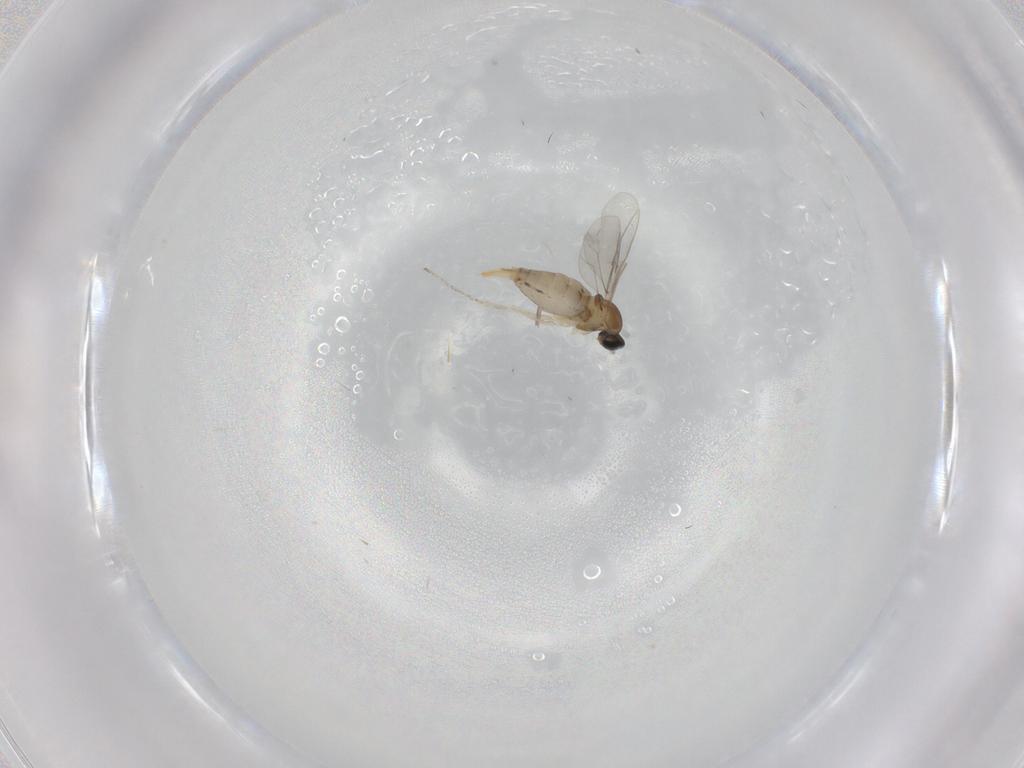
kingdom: Animalia
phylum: Arthropoda
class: Insecta
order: Diptera
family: Cecidomyiidae
